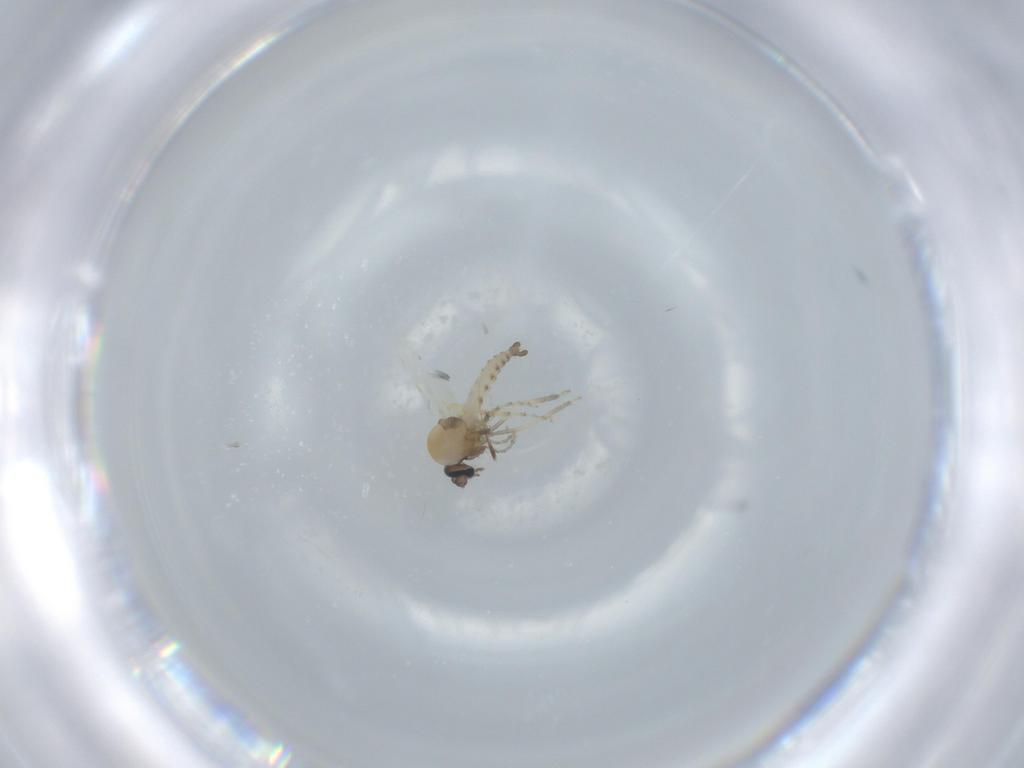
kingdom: Animalia
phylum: Arthropoda
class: Insecta
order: Diptera
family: Ceratopogonidae
